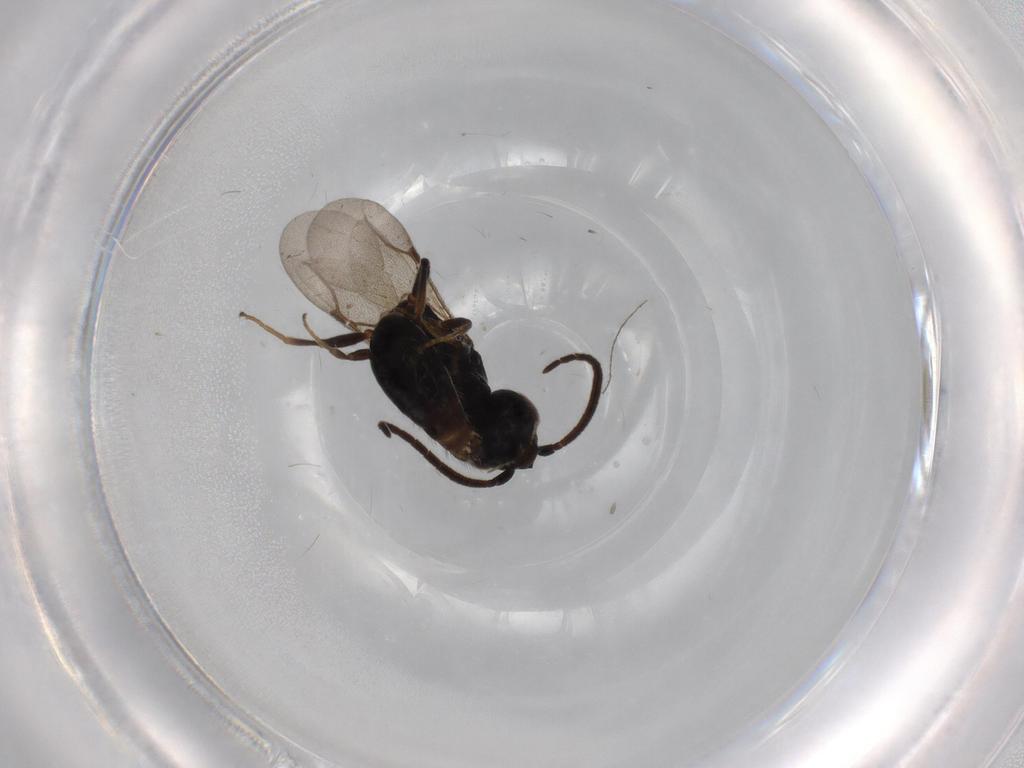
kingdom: Animalia
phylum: Arthropoda
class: Insecta
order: Hymenoptera
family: Bethylidae
